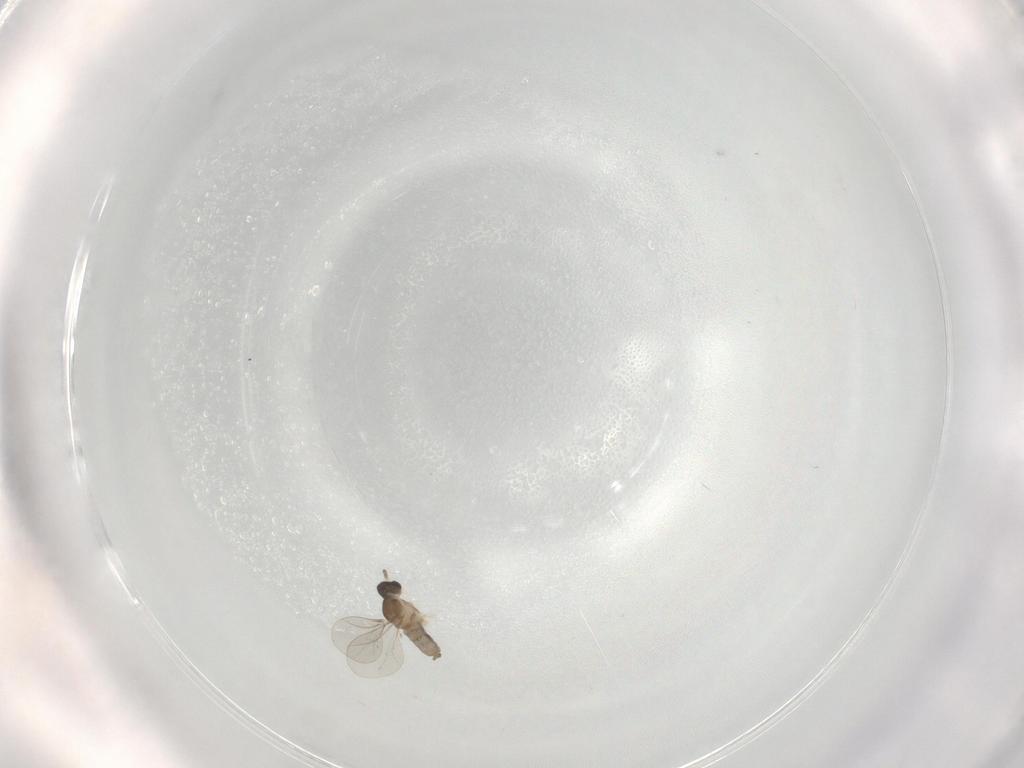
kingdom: Animalia
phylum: Arthropoda
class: Insecta
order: Diptera
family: Cecidomyiidae
